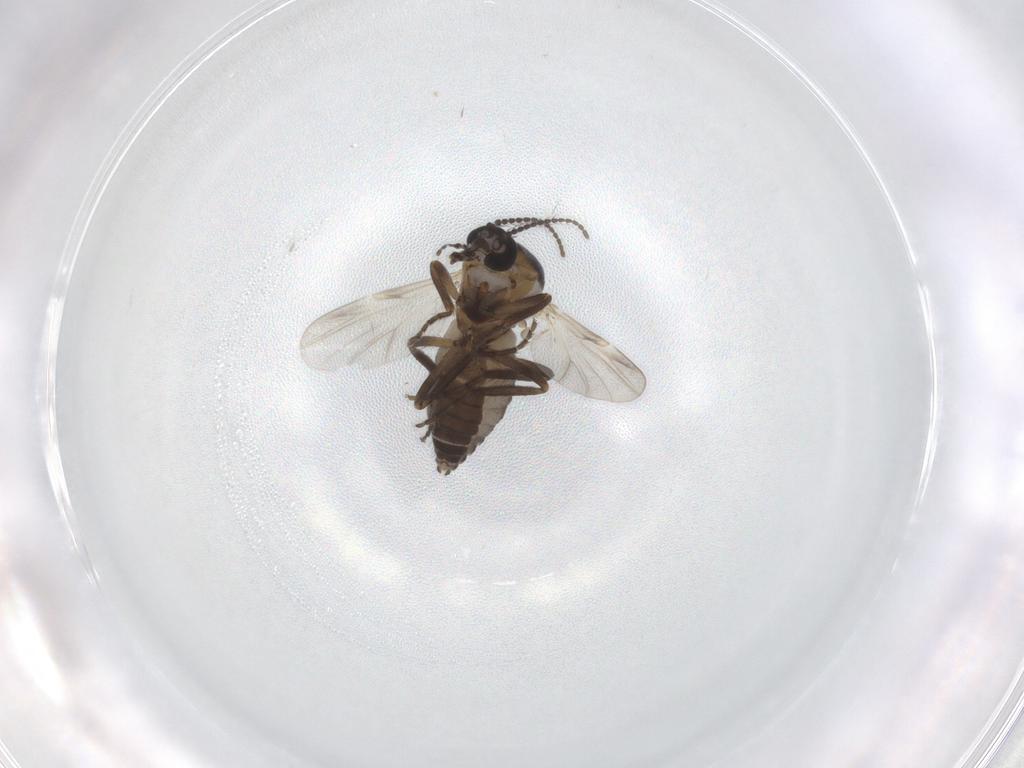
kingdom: Animalia
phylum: Arthropoda
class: Insecta
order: Diptera
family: Ceratopogonidae
